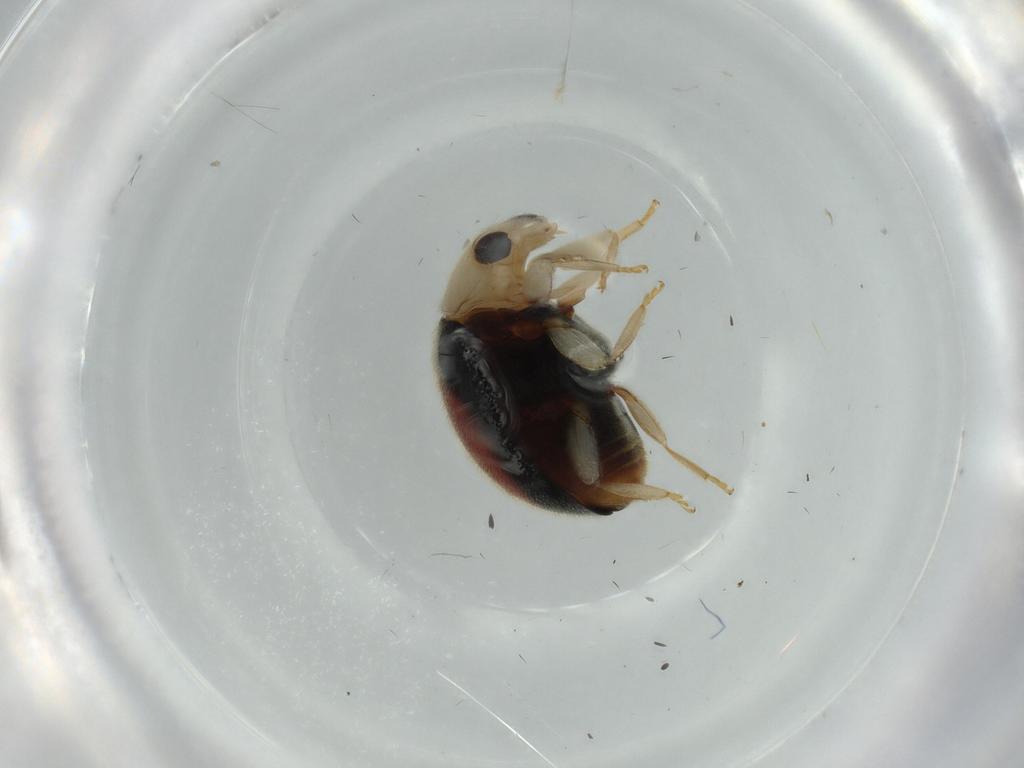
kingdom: Animalia
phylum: Arthropoda
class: Insecta
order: Coleoptera
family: Coccinellidae
